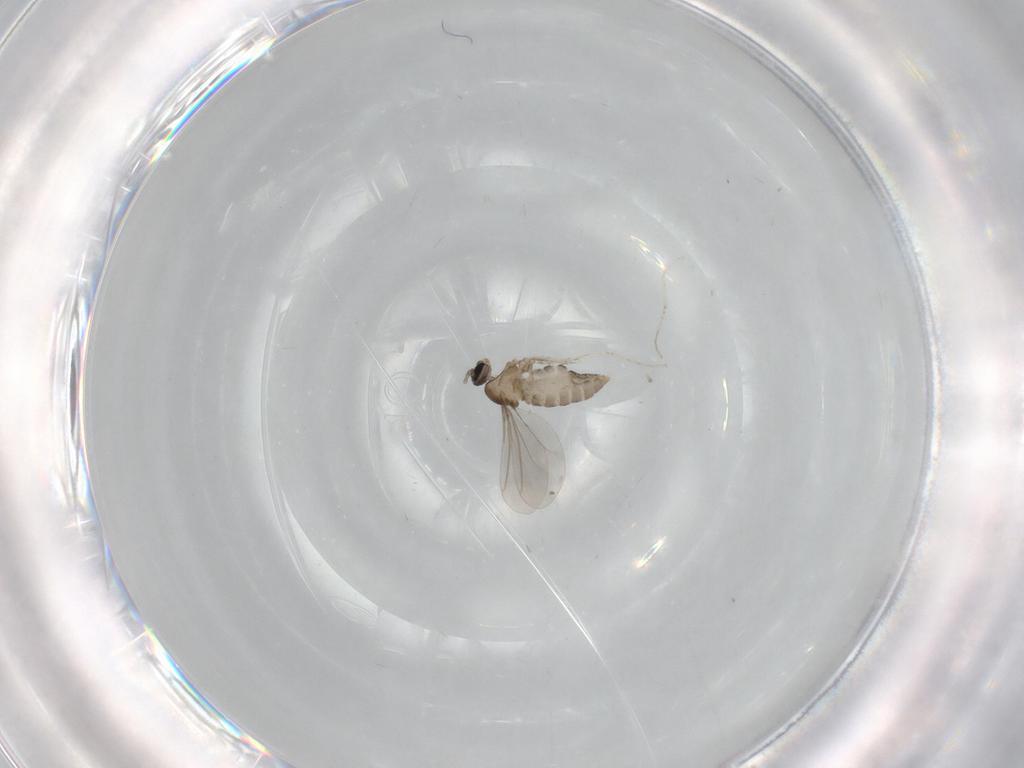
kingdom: Animalia
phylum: Arthropoda
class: Insecta
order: Diptera
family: Cecidomyiidae
